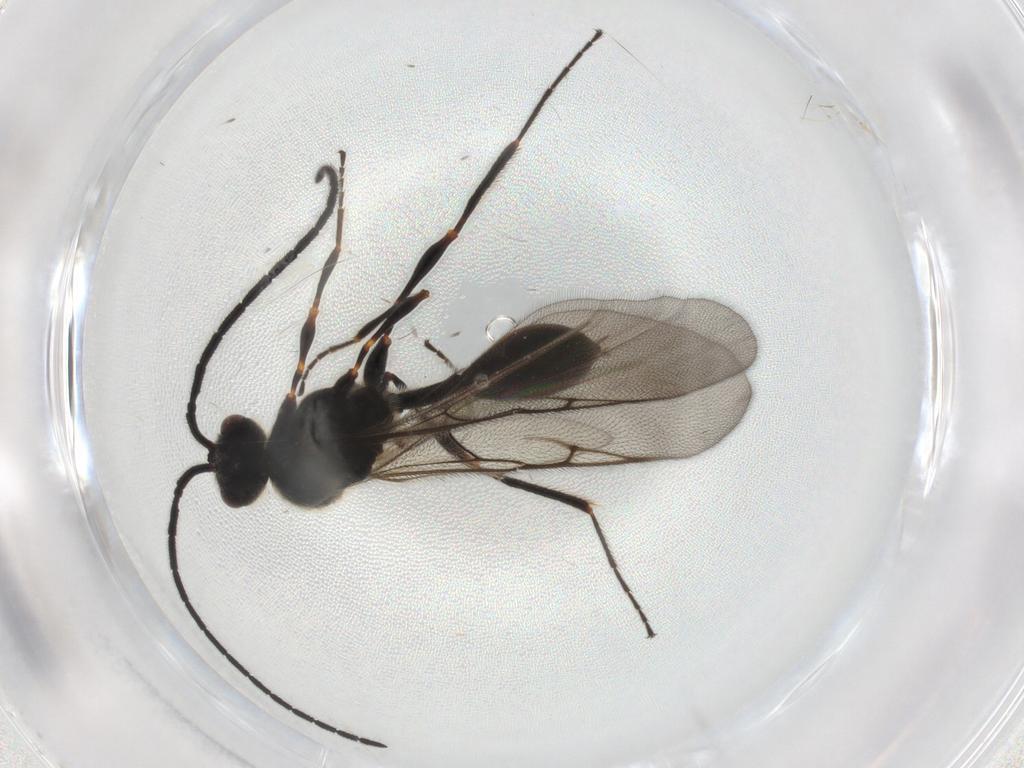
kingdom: Animalia
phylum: Arthropoda
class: Insecta
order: Hymenoptera
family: Diapriidae
